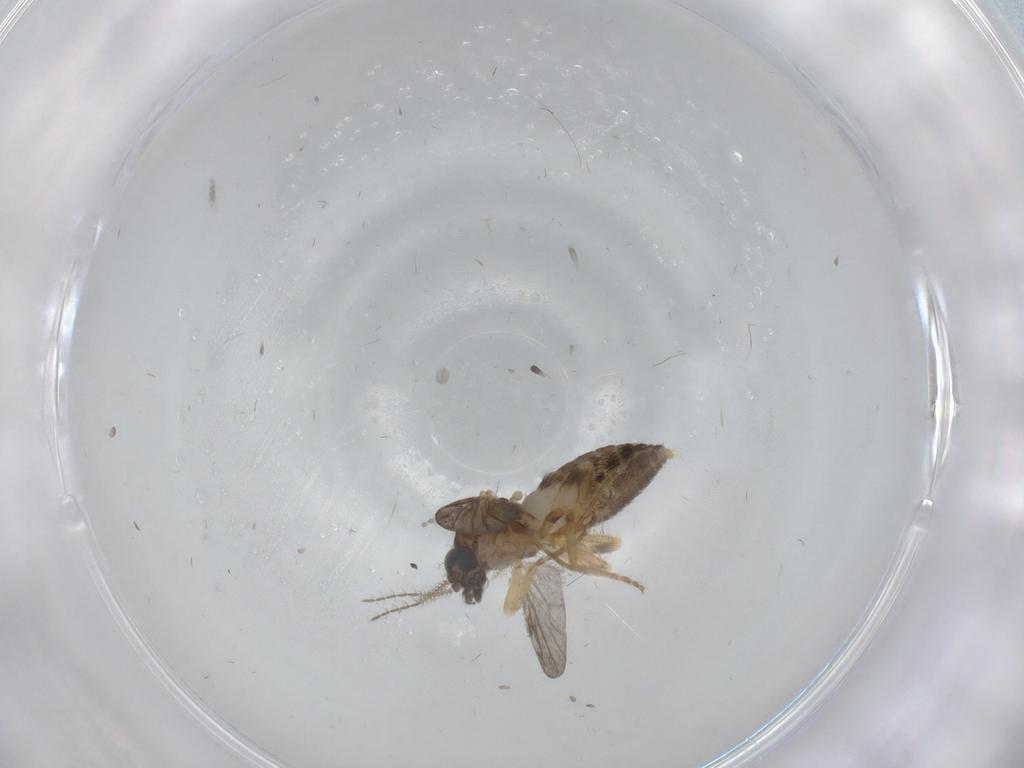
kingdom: Animalia
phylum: Arthropoda
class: Insecta
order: Diptera
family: Ceratopogonidae
